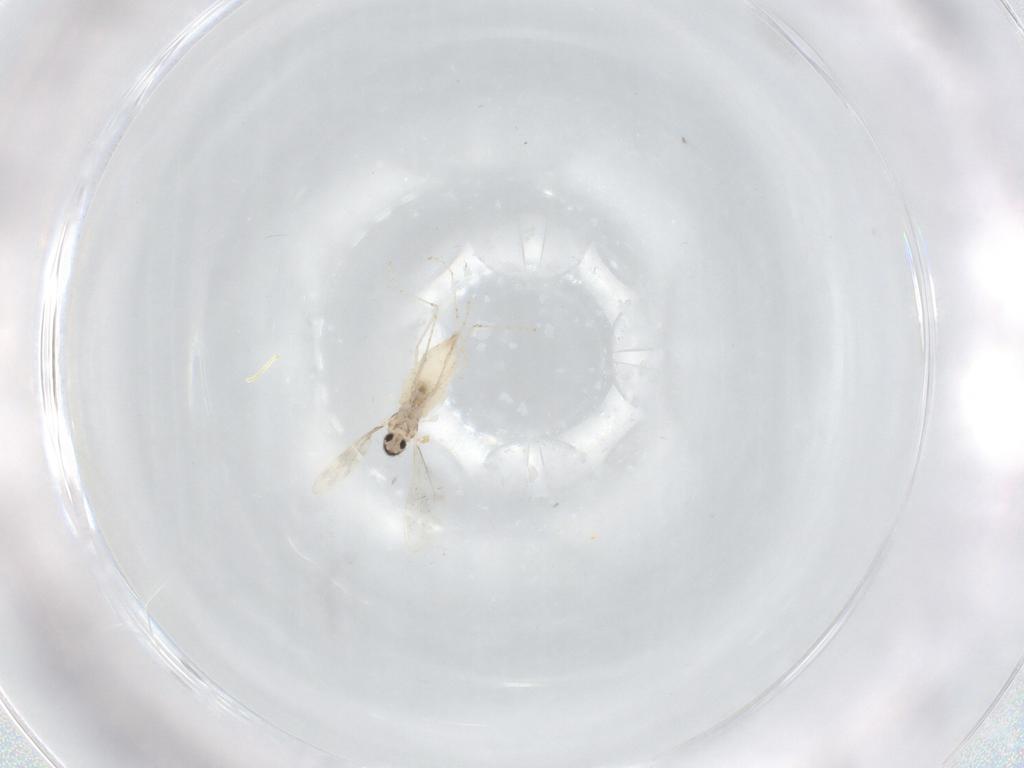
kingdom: Animalia
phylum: Arthropoda
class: Insecta
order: Diptera
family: Cecidomyiidae
